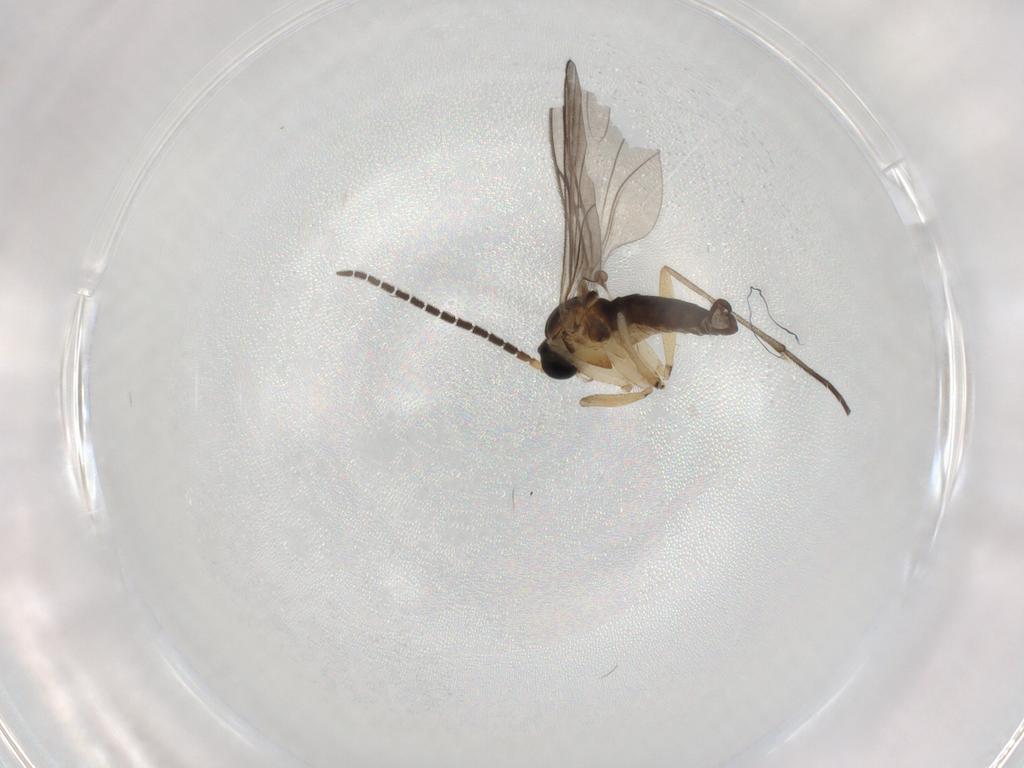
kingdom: Animalia
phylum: Arthropoda
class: Insecta
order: Diptera
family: Sciaridae
